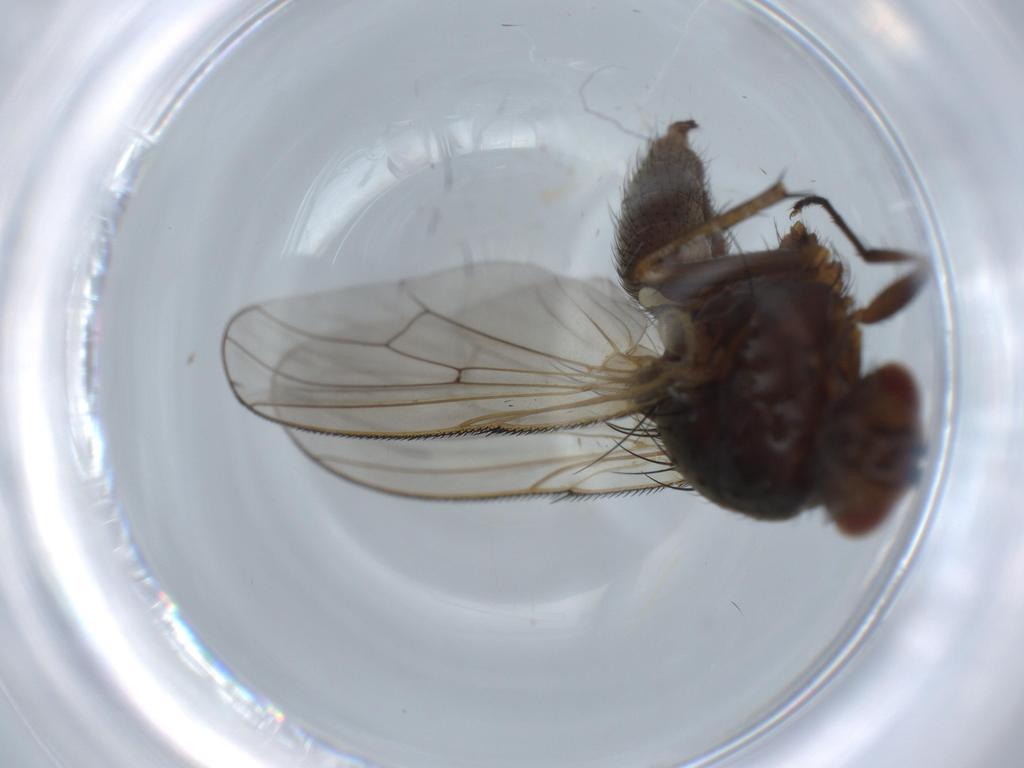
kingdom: Animalia
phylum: Arthropoda
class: Insecta
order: Diptera
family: Anthomyiidae
